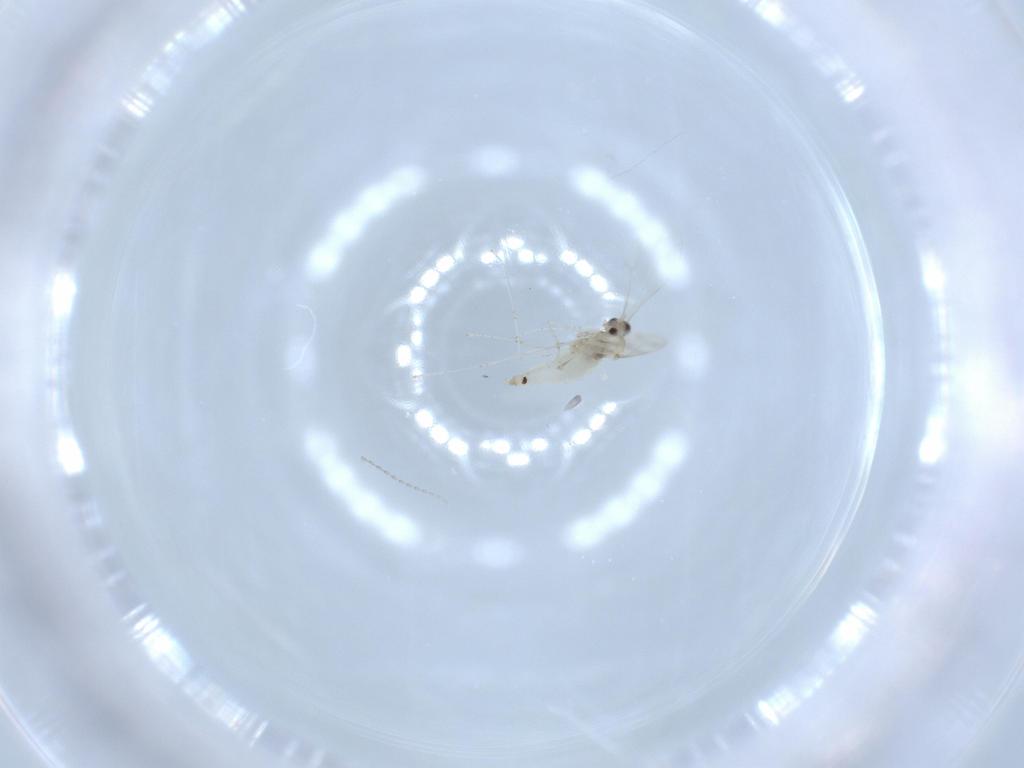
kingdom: Animalia
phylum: Arthropoda
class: Insecta
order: Diptera
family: Cecidomyiidae
